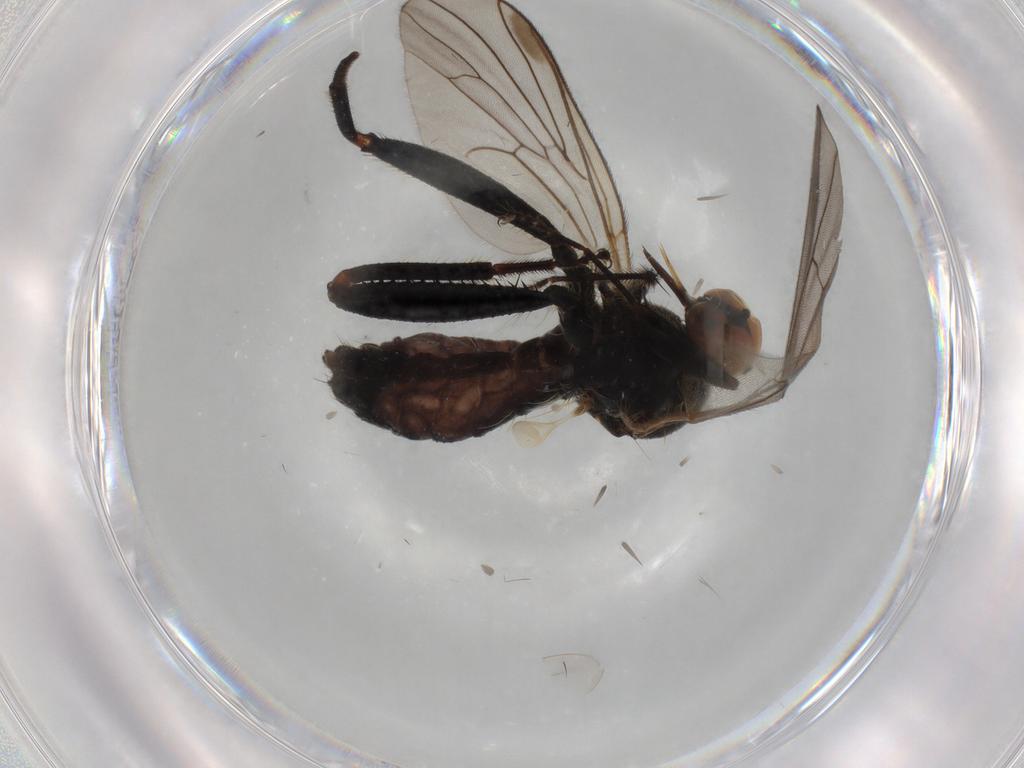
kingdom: Animalia
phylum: Arthropoda
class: Insecta
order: Diptera
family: Hybotidae
